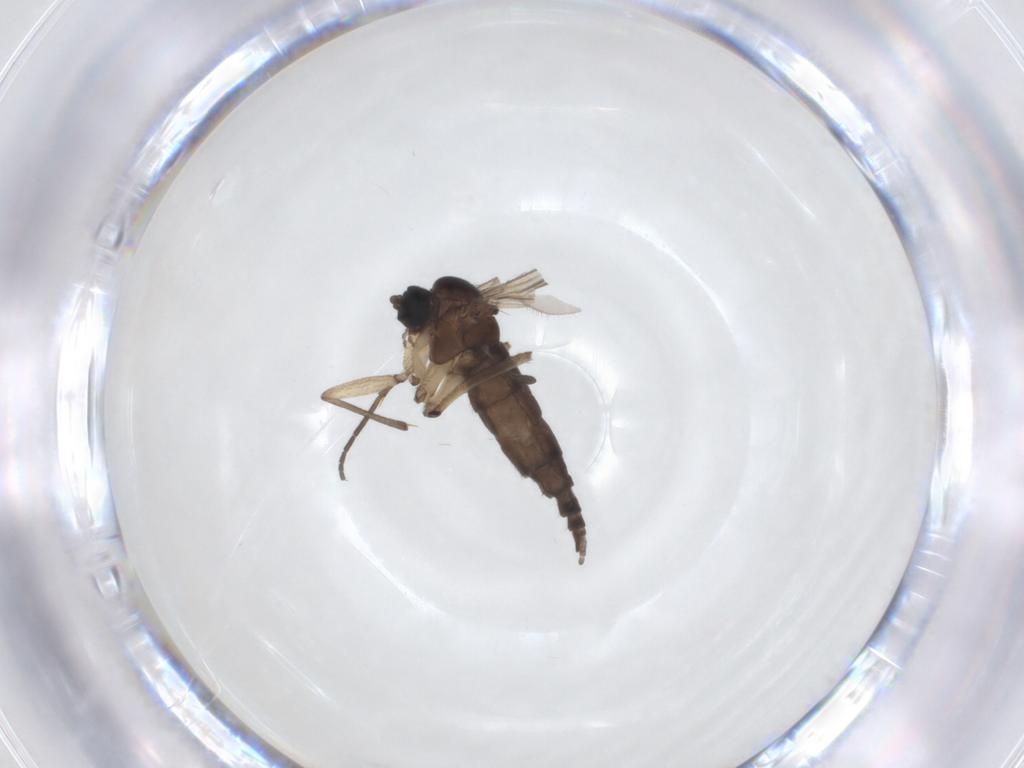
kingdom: Animalia
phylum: Arthropoda
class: Insecta
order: Diptera
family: Sciaridae
